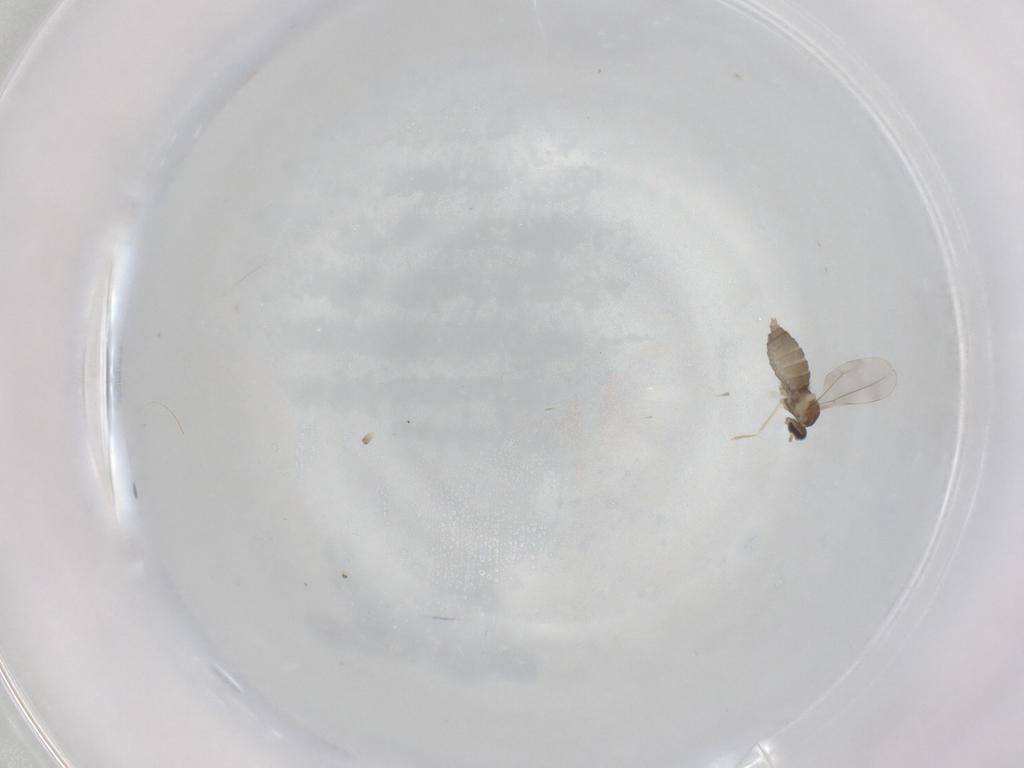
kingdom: Animalia
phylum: Arthropoda
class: Insecta
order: Diptera
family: Cecidomyiidae
